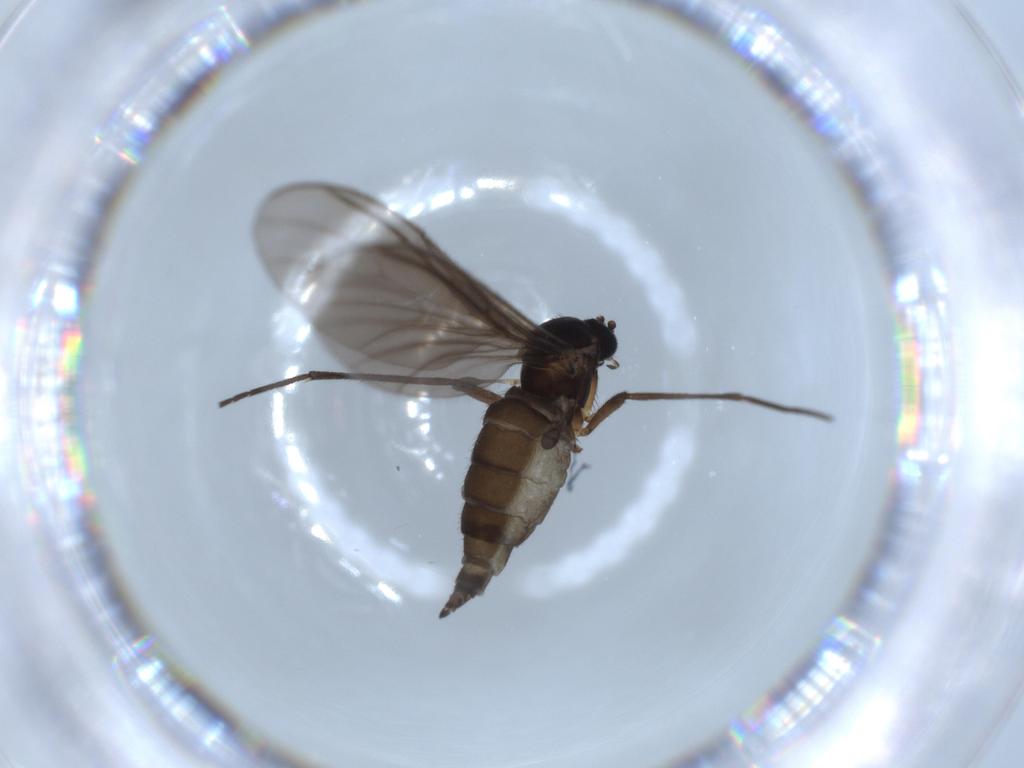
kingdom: Animalia
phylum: Arthropoda
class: Insecta
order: Diptera
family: Sciaridae
